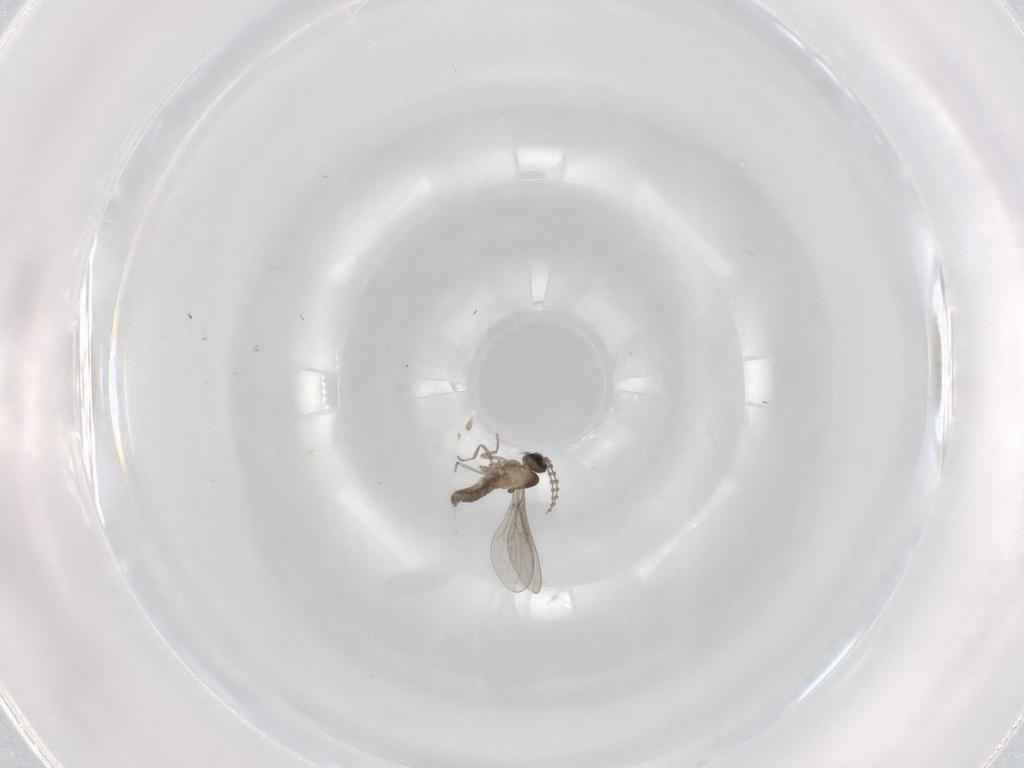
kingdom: Animalia
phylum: Arthropoda
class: Insecta
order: Diptera
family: Cecidomyiidae
